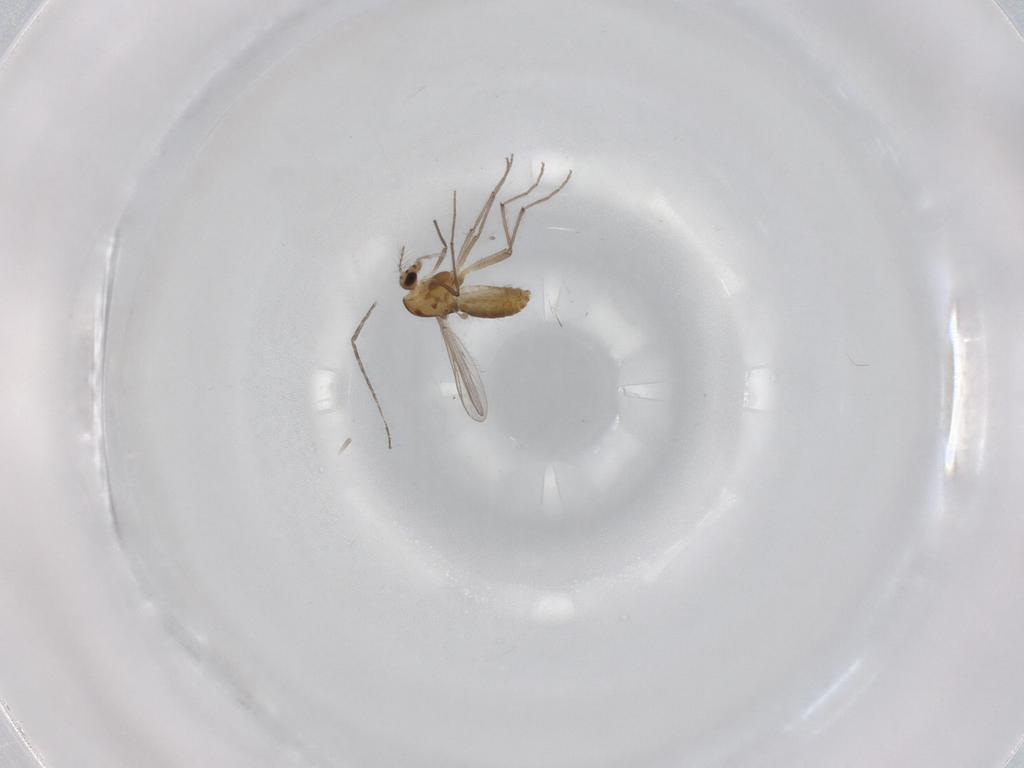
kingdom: Animalia
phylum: Arthropoda
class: Insecta
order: Diptera
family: Chironomidae
